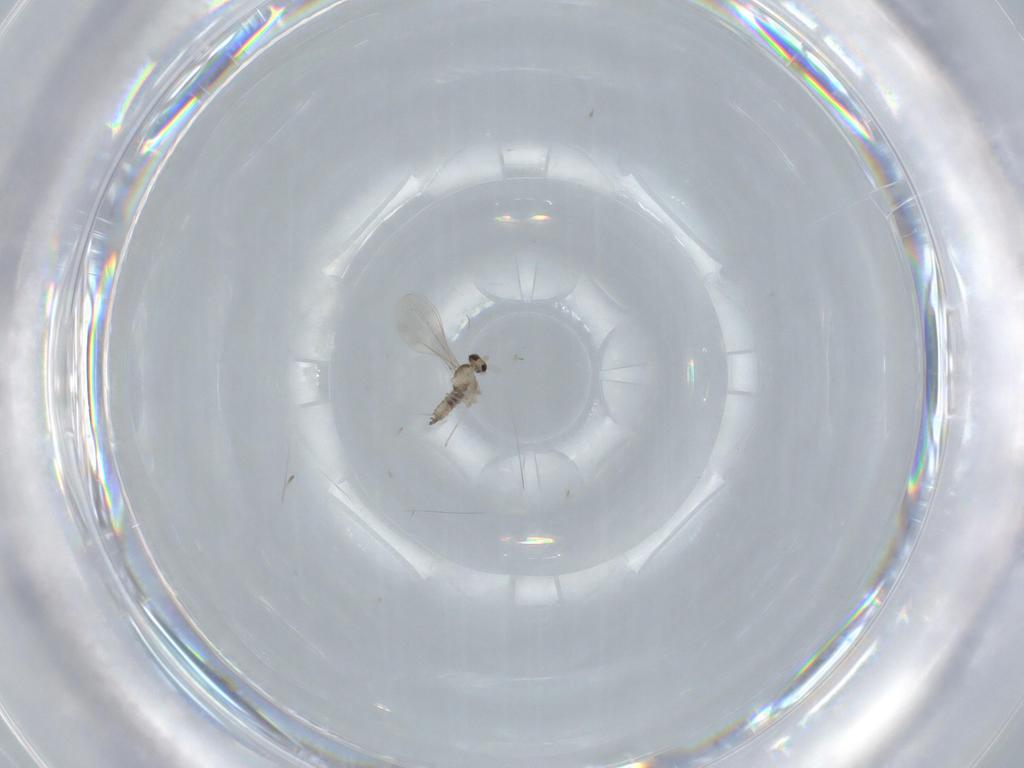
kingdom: Animalia
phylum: Arthropoda
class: Insecta
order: Diptera
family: Cecidomyiidae
